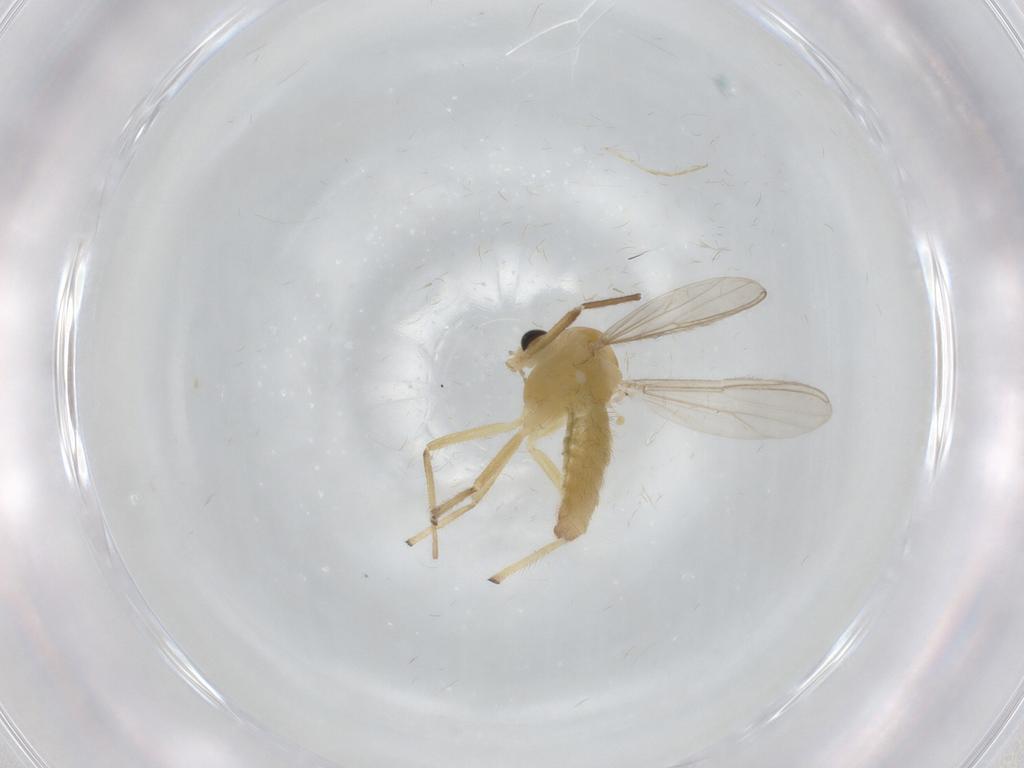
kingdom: Animalia
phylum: Arthropoda
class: Insecta
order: Diptera
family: Chironomidae
